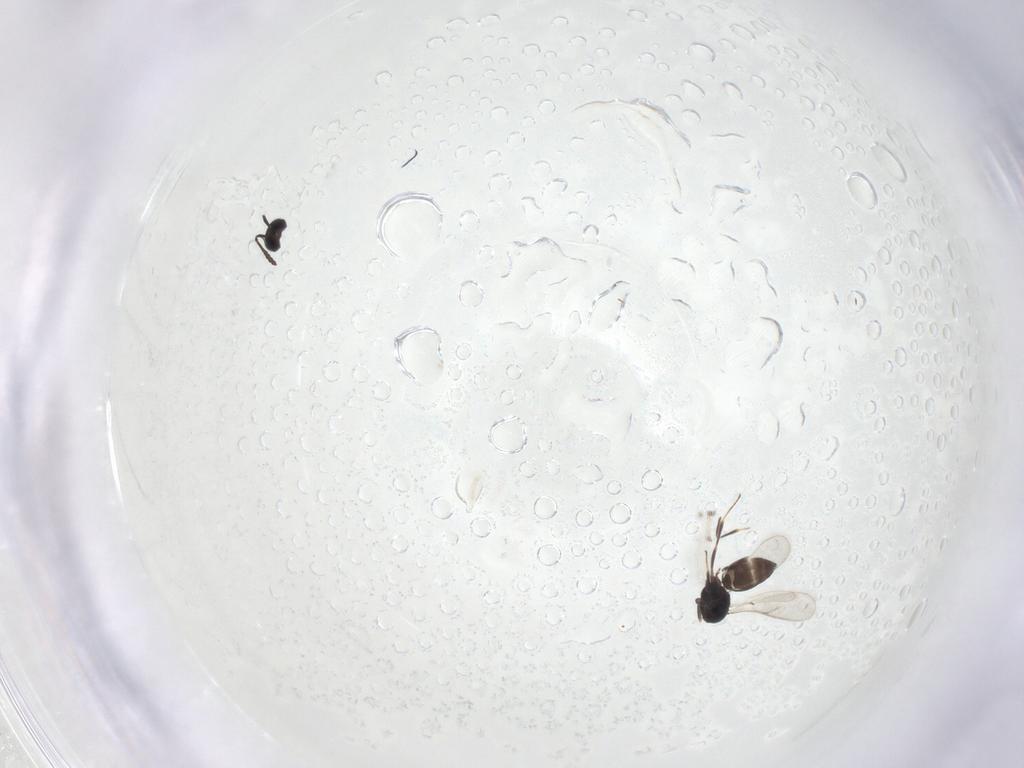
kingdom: Animalia
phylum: Arthropoda
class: Insecta
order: Hymenoptera
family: Scelionidae
